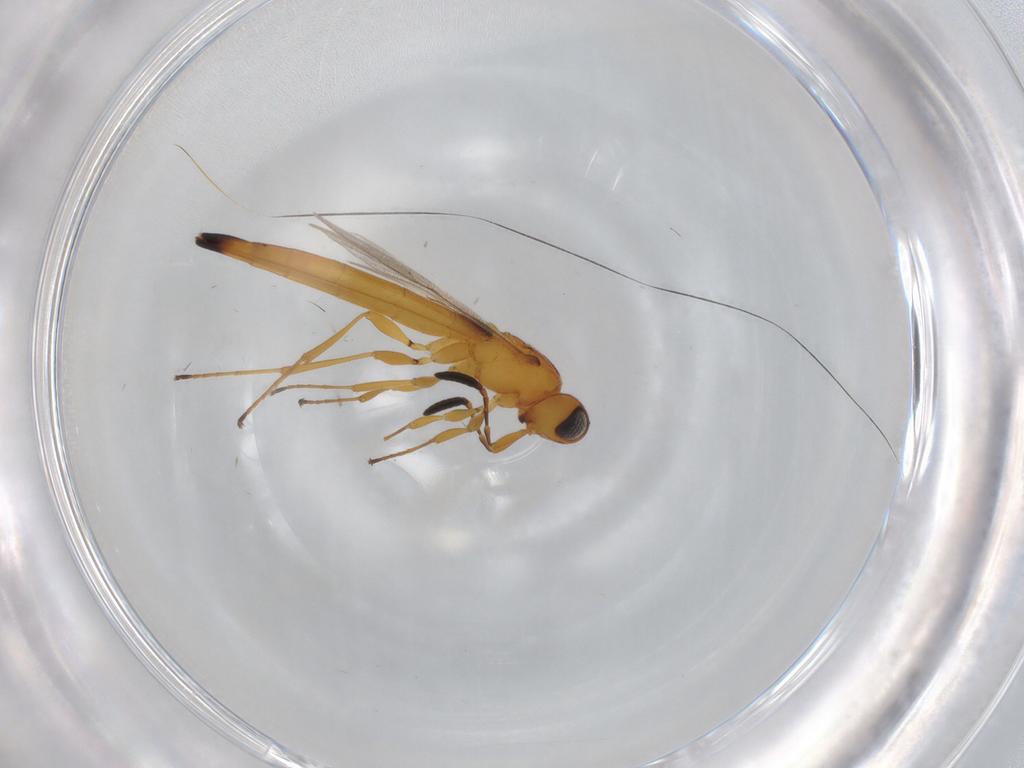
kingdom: Animalia
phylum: Arthropoda
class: Insecta
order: Hymenoptera
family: Scelionidae
